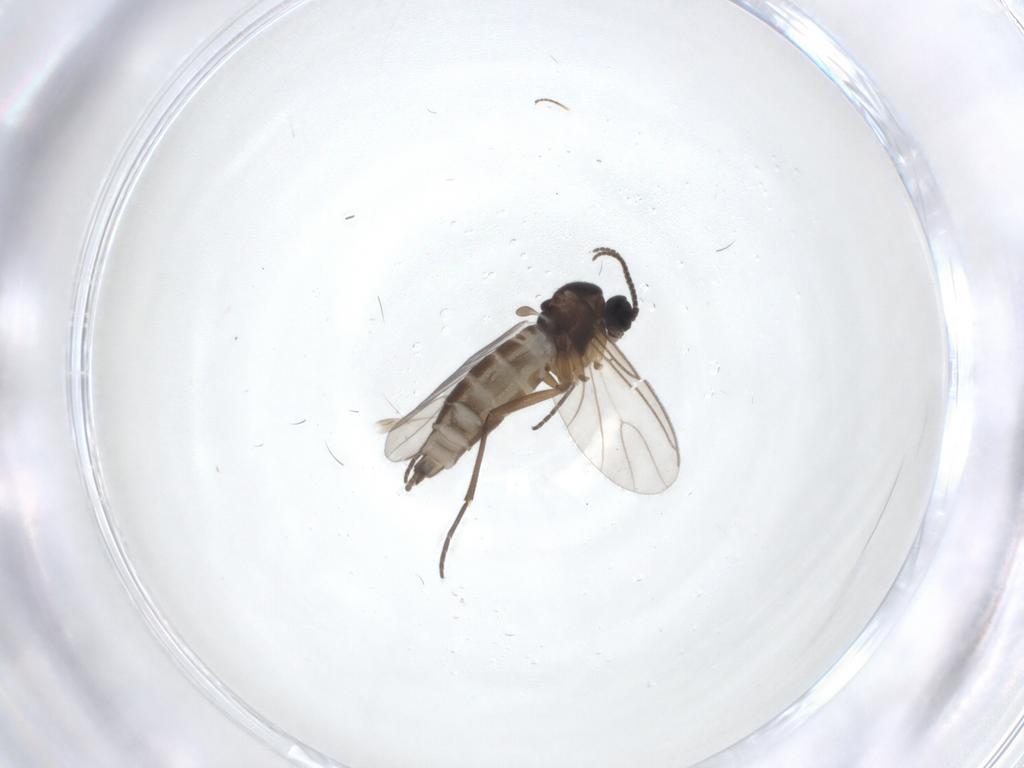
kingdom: Animalia
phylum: Arthropoda
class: Insecta
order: Diptera
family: Sciaridae
